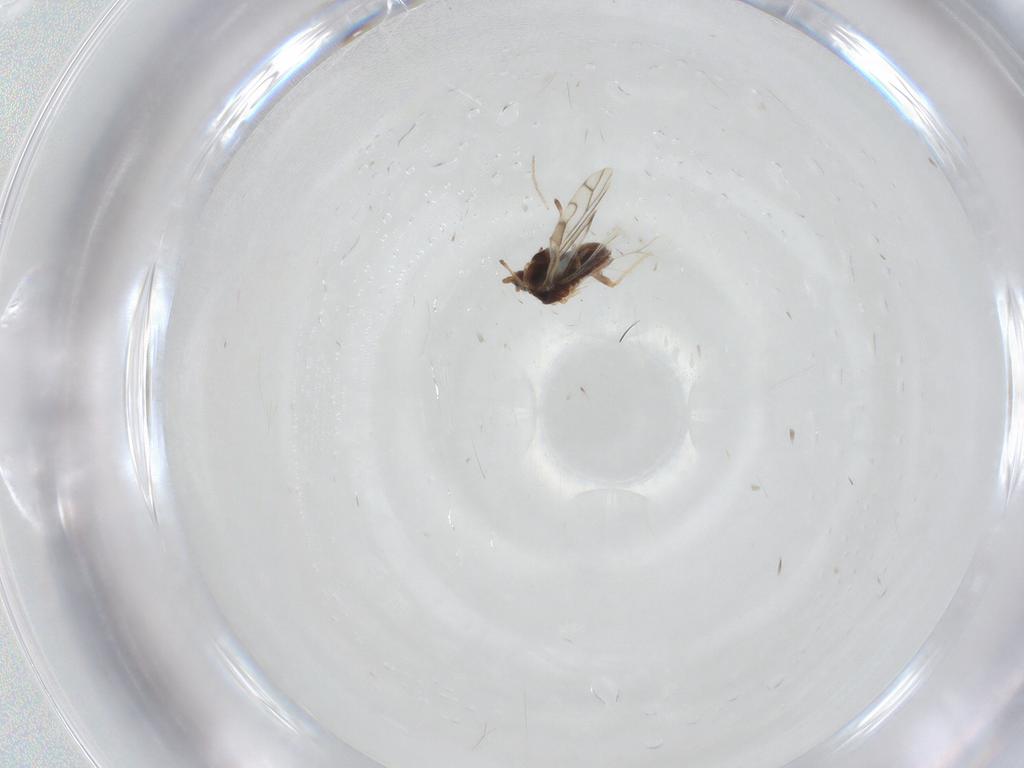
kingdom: Animalia
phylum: Arthropoda
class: Insecta
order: Hemiptera
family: Aphididae
